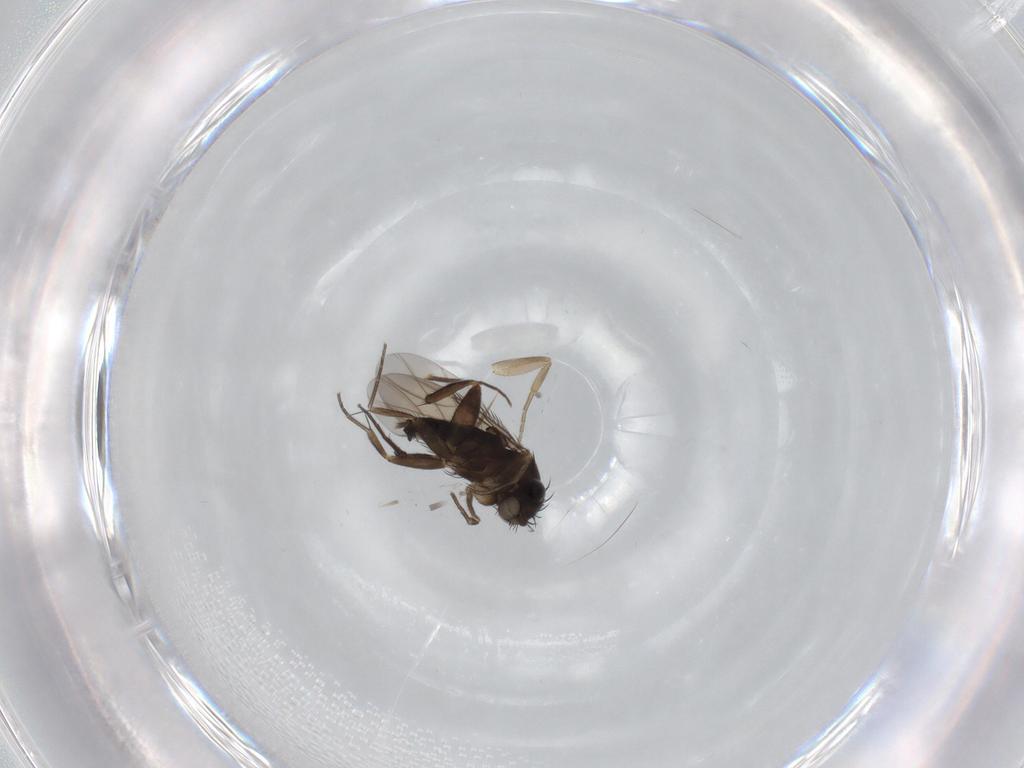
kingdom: Animalia
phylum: Arthropoda
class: Insecta
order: Diptera
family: Phoridae
